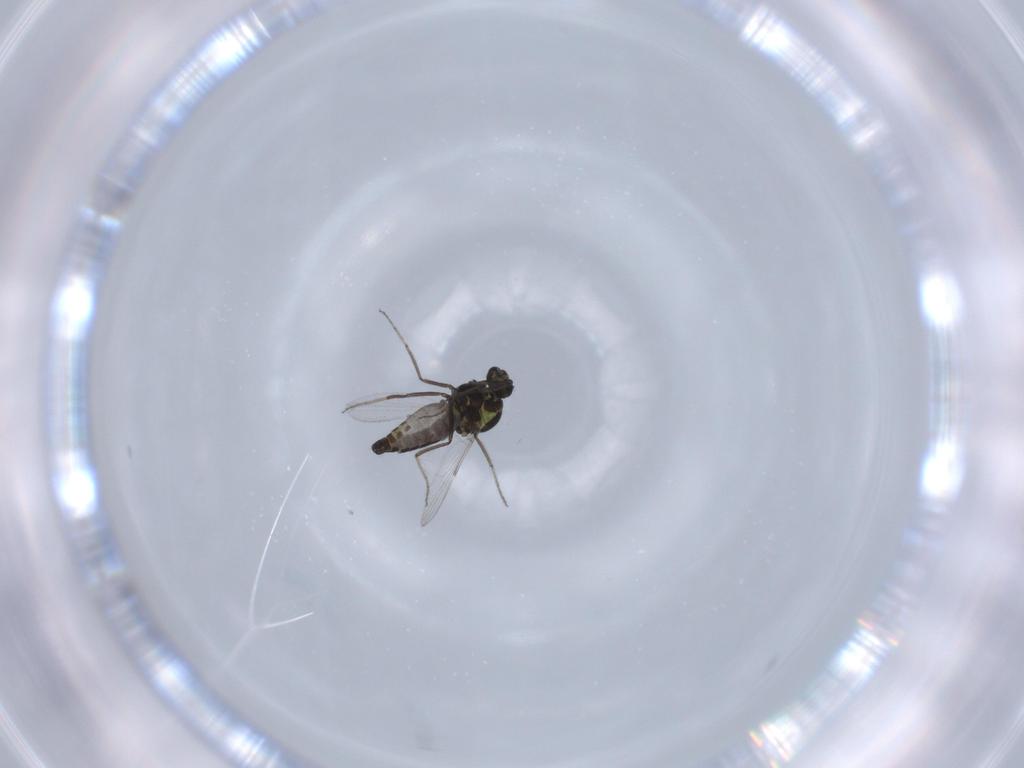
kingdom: Animalia
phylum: Arthropoda
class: Insecta
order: Diptera
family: Ceratopogonidae
